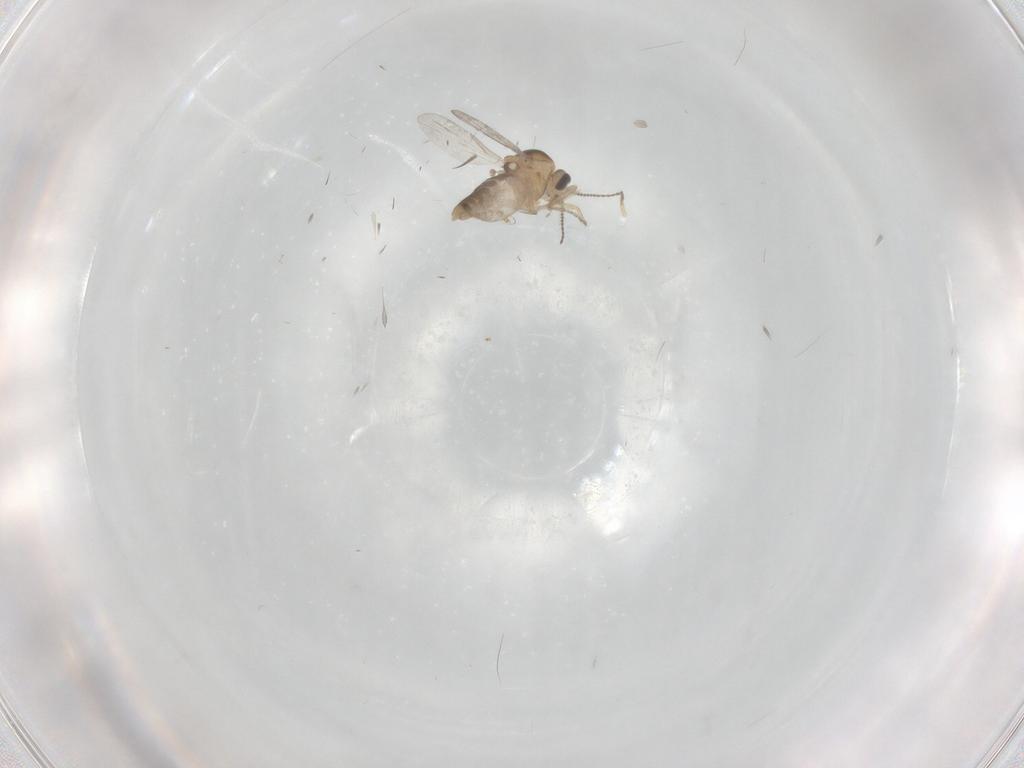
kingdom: Animalia
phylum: Arthropoda
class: Insecta
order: Diptera
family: Ceratopogonidae
